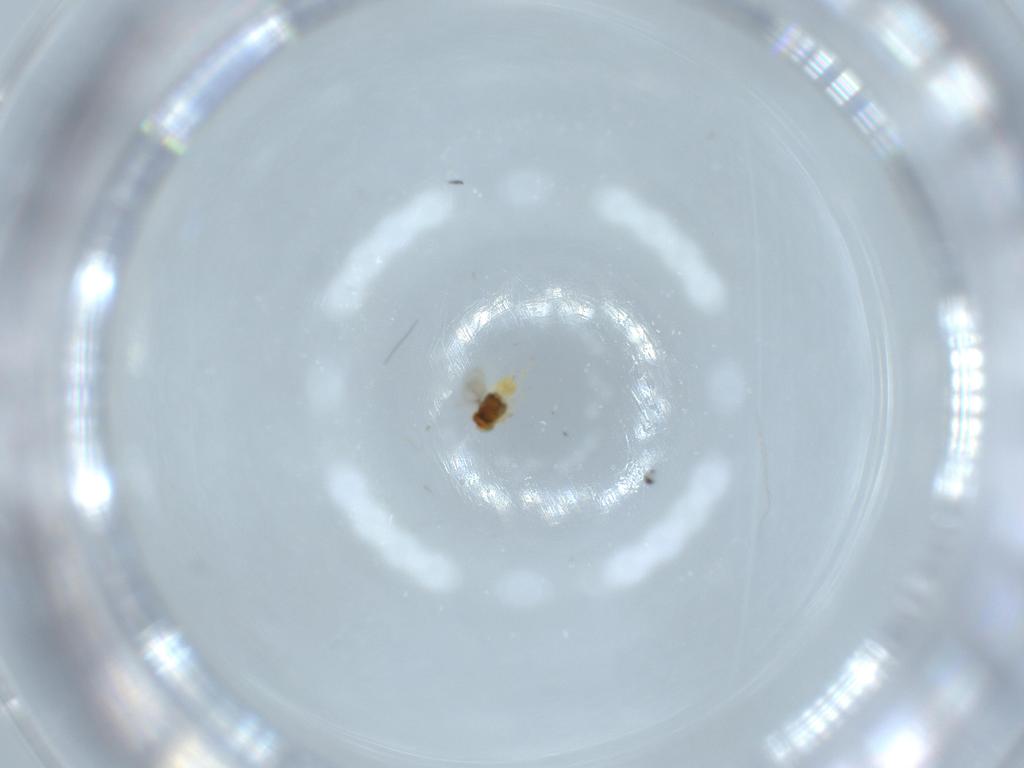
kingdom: Animalia
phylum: Arthropoda
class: Insecta
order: Hymenoptera
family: Aphelinidae
